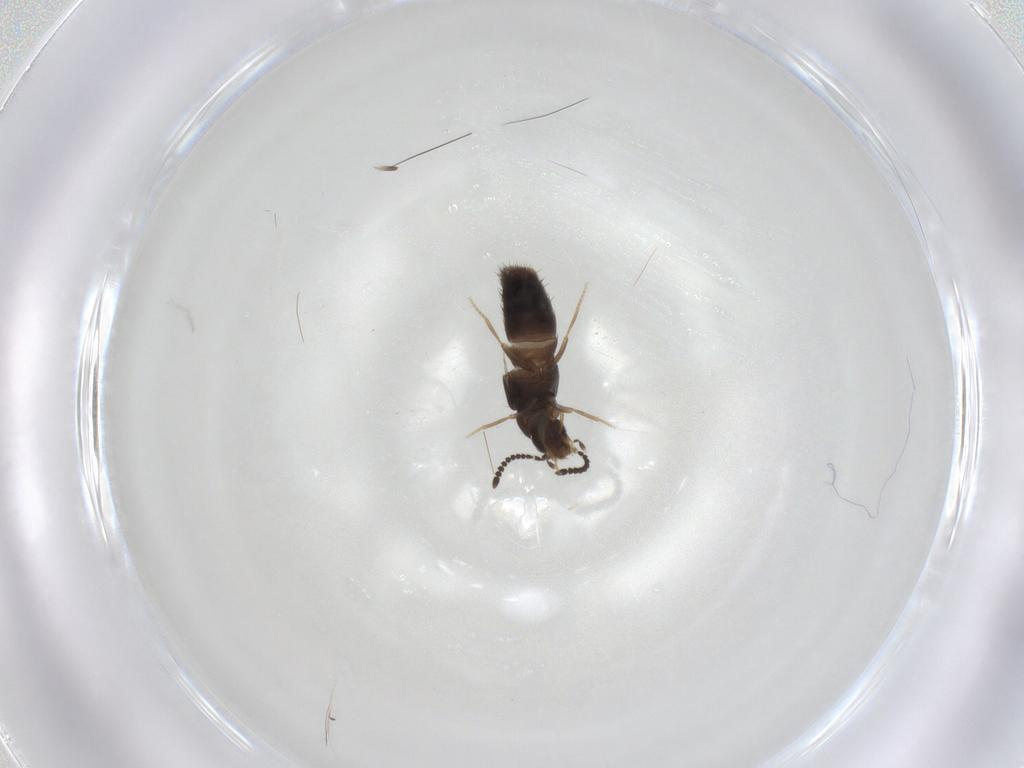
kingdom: Animalia
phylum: Arthropoda
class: Insecta
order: Coleoptera
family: Staphylinidae
